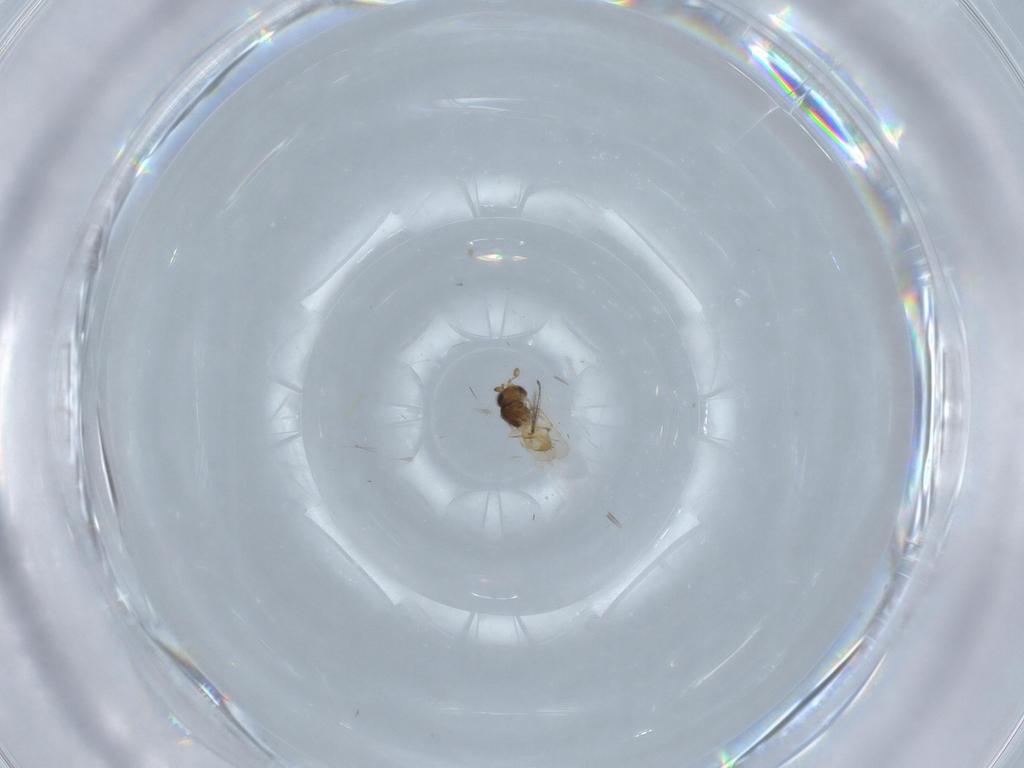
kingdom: Animalia
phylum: Arthropoda
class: Insecta
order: Hymenoptera
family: Scelionidae
